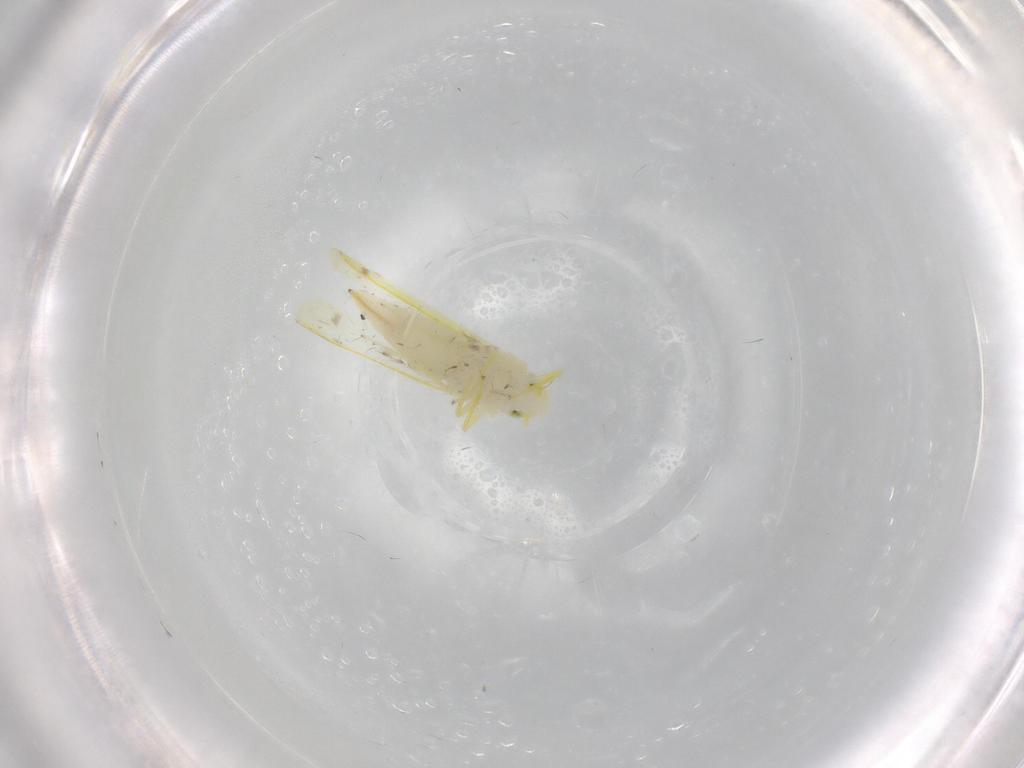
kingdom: Animalia
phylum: Arthropoda
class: Insecta
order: Hemiptera
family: Cicadellidae
